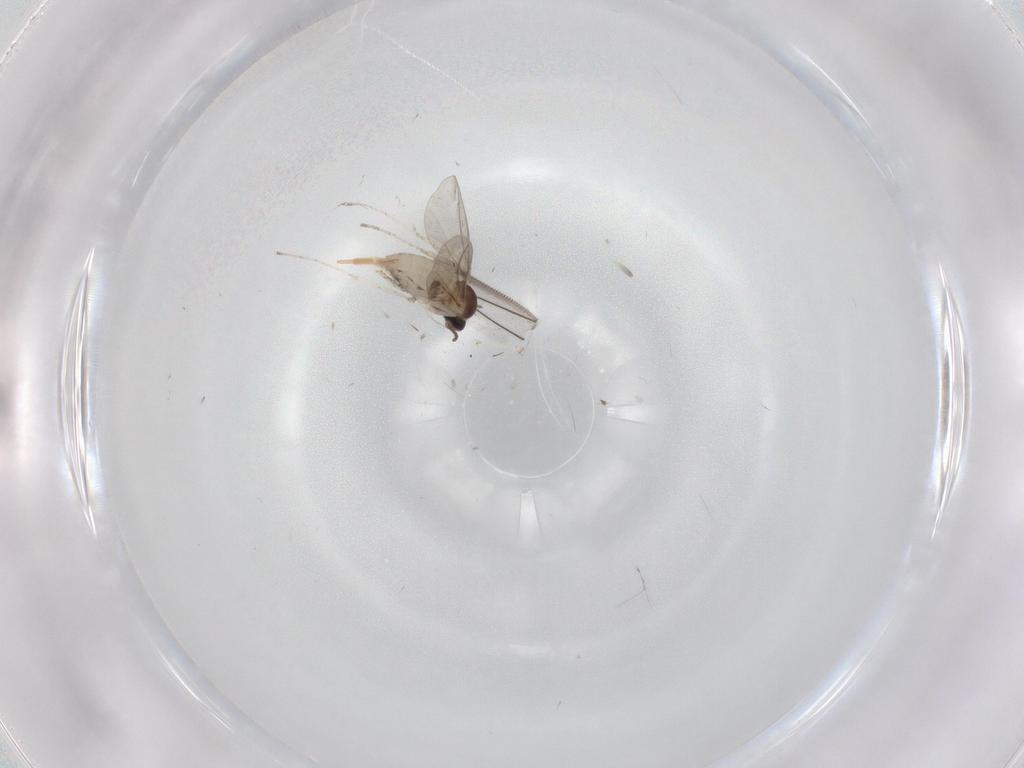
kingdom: Animalia
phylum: Arthropoda
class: Insecta
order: Diptera
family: Cecidomyiidae
